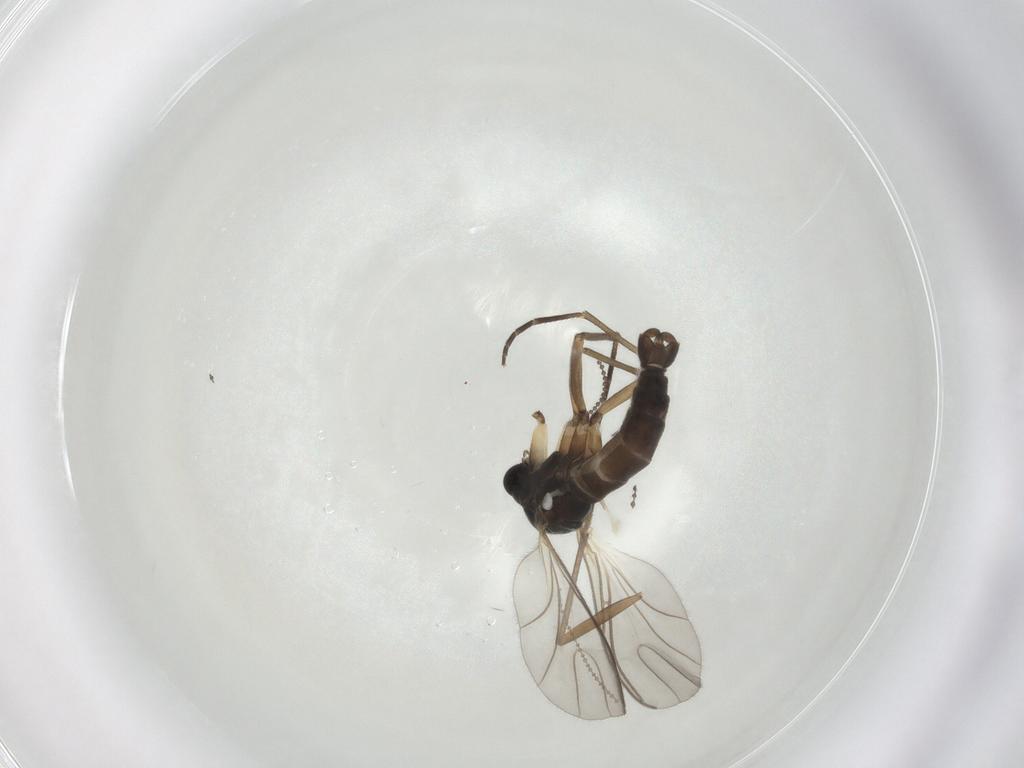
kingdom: Animalia
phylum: Arthropoda
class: Insecta
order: Diptera
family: Sciaridae
